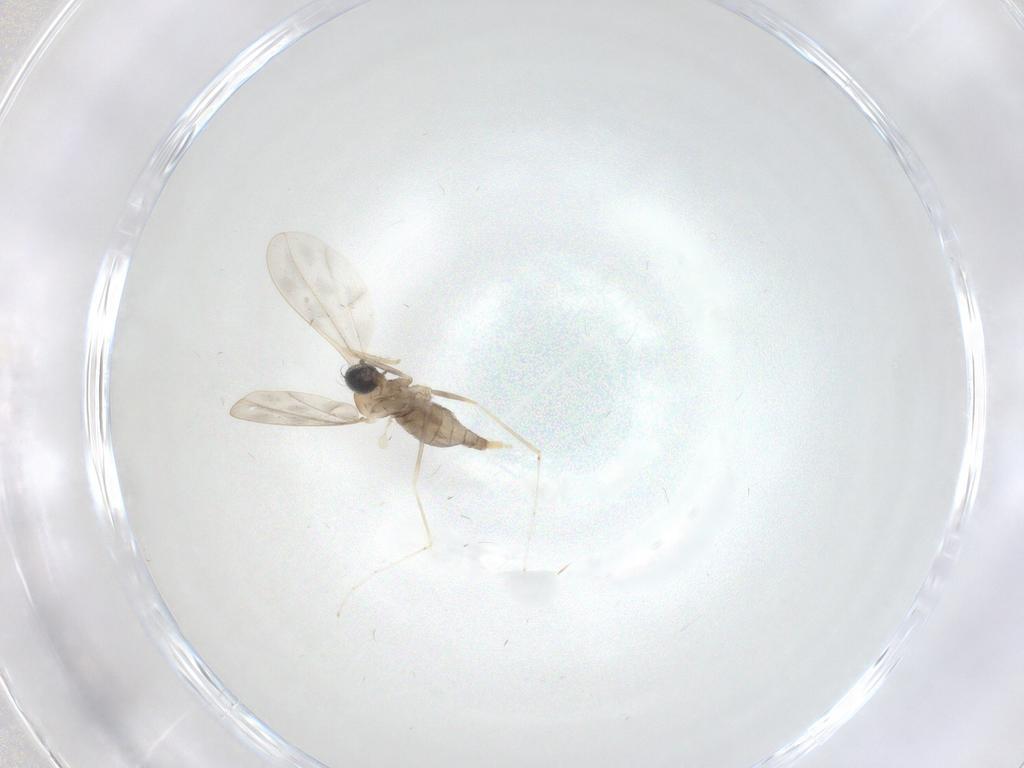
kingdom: Animalia
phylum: Arthropoda
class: Insecta
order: Diptera
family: Cecidomyiidae
